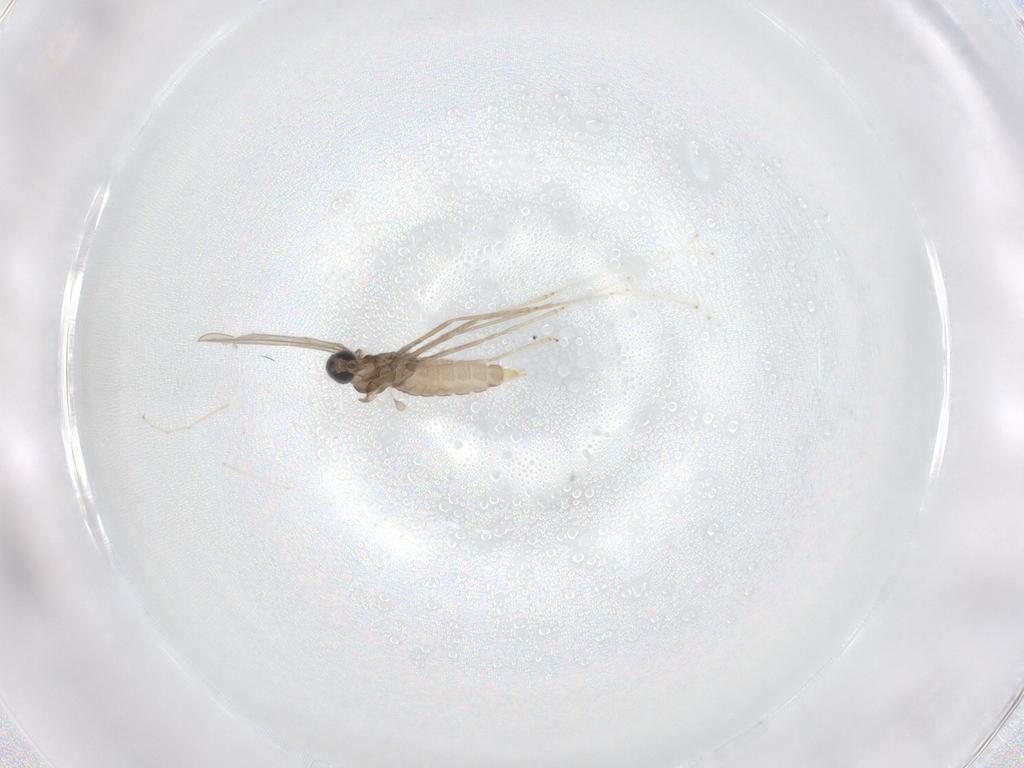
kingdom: Animalia
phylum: Arthropoda
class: Insecta
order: Diptera
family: Cecidomyiidae
